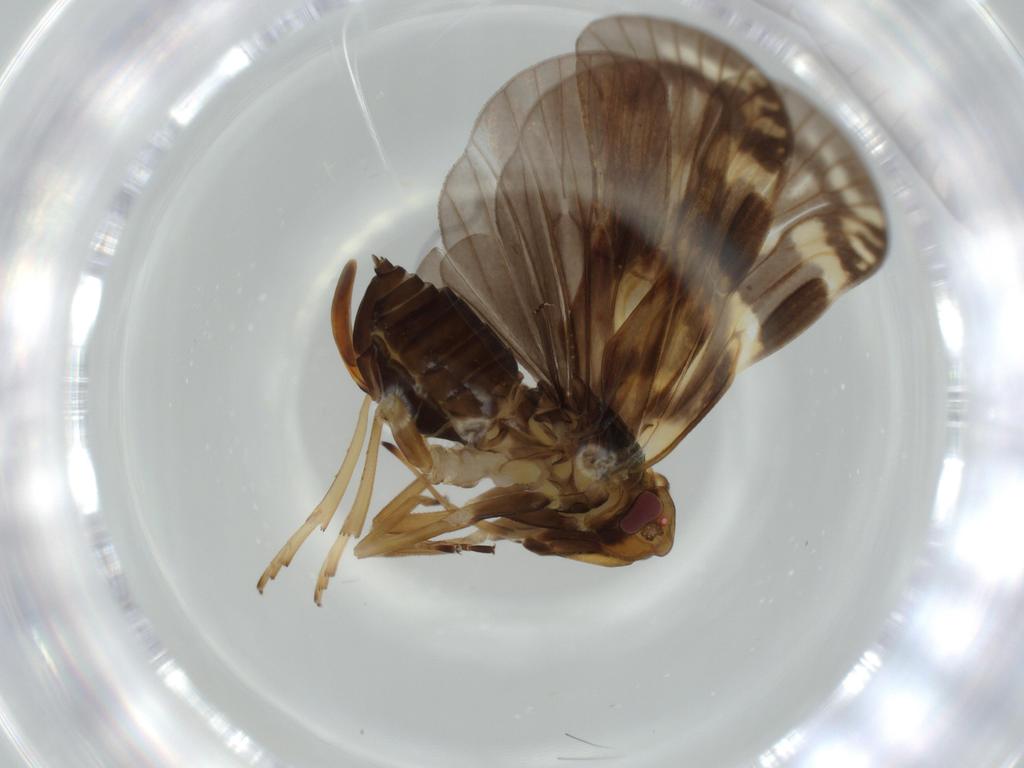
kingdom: Animalia
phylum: Arthropoda
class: Insecta
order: Hemiptera
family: Cixiidae
